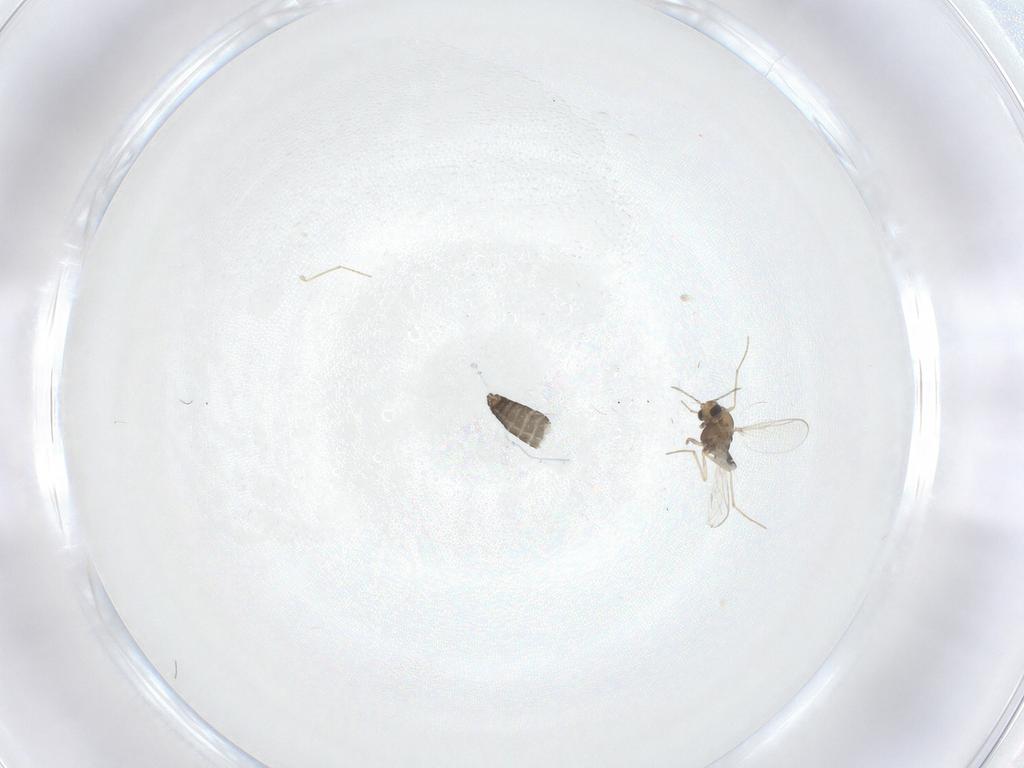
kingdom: Animalia
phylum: Arthropoda
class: Insecta
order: Diptera
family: Chironomidae
